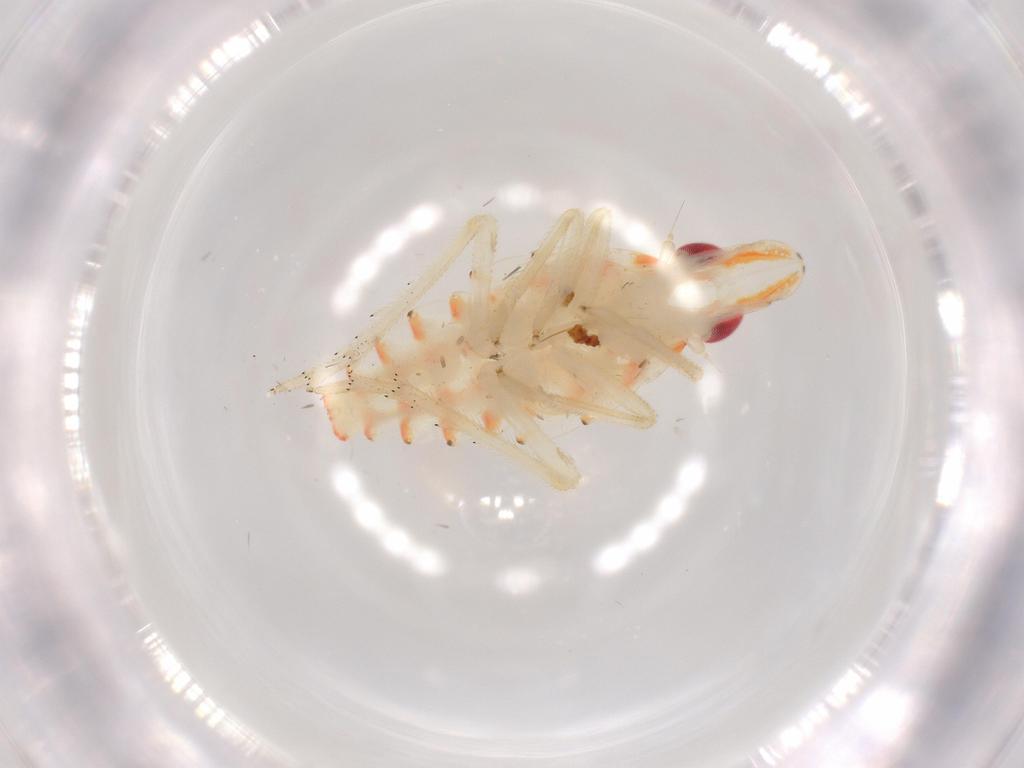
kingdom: Animalia
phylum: Arthropoda
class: Insecta
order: Hemiptera
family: Tropiduchidae
